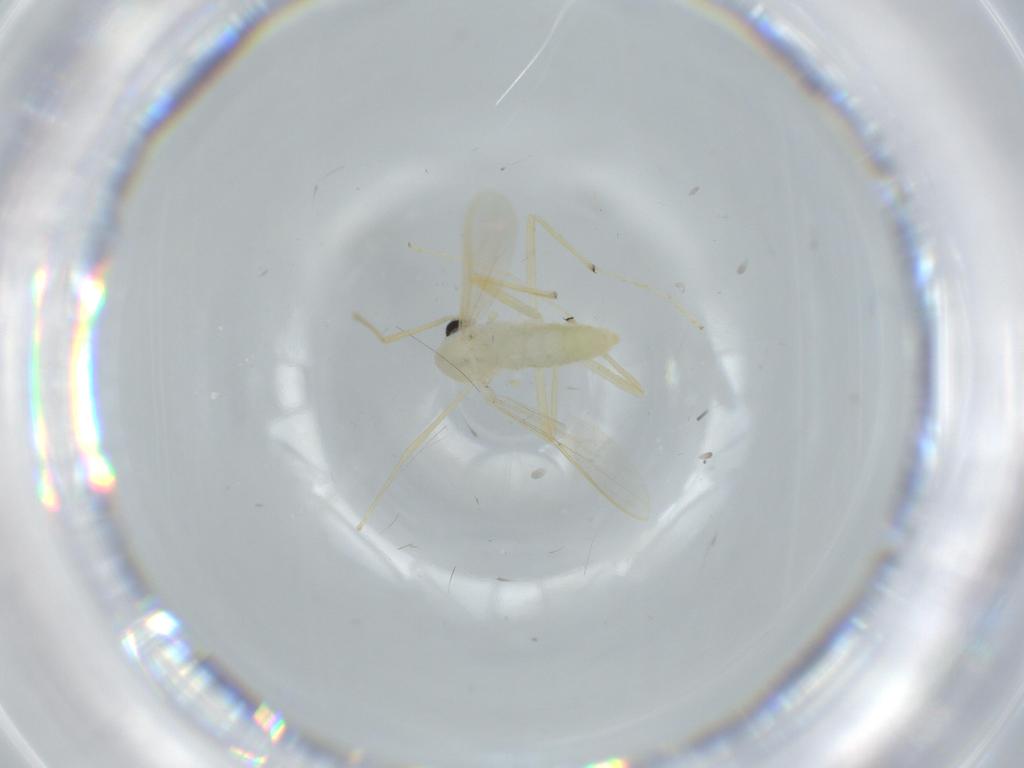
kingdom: Animalia
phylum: Arthropoda
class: Insecta
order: Diptera
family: Chironomidae
